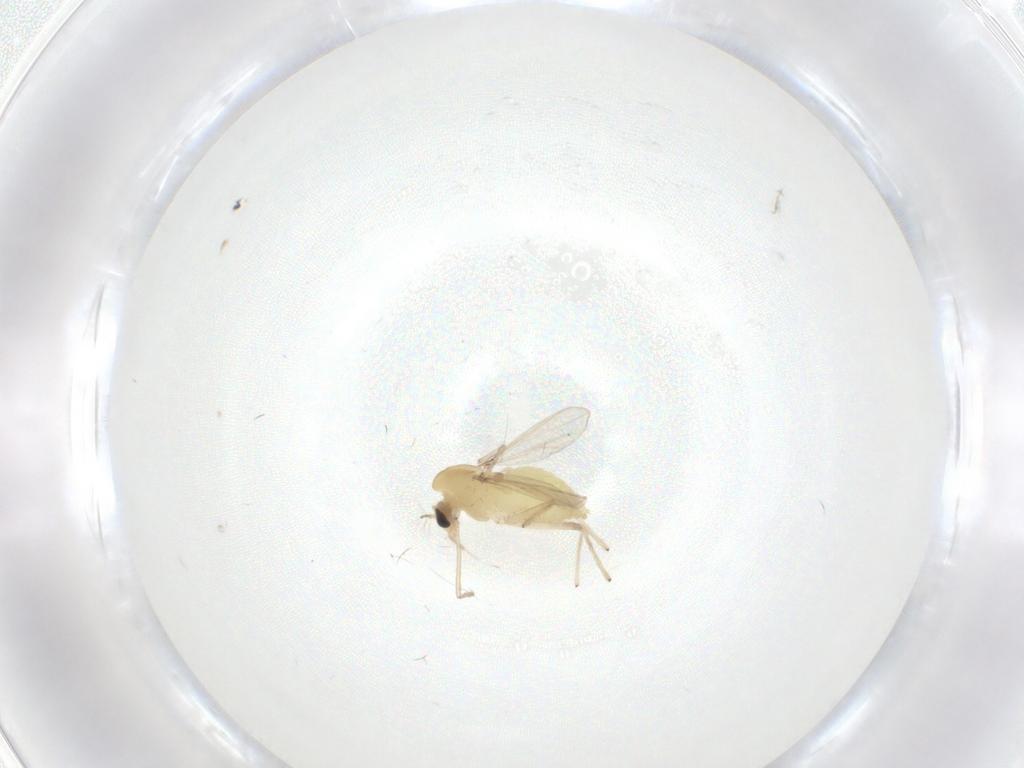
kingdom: Animalia
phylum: Arthropoda
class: Insecta
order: Diptera
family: Chironomidae
